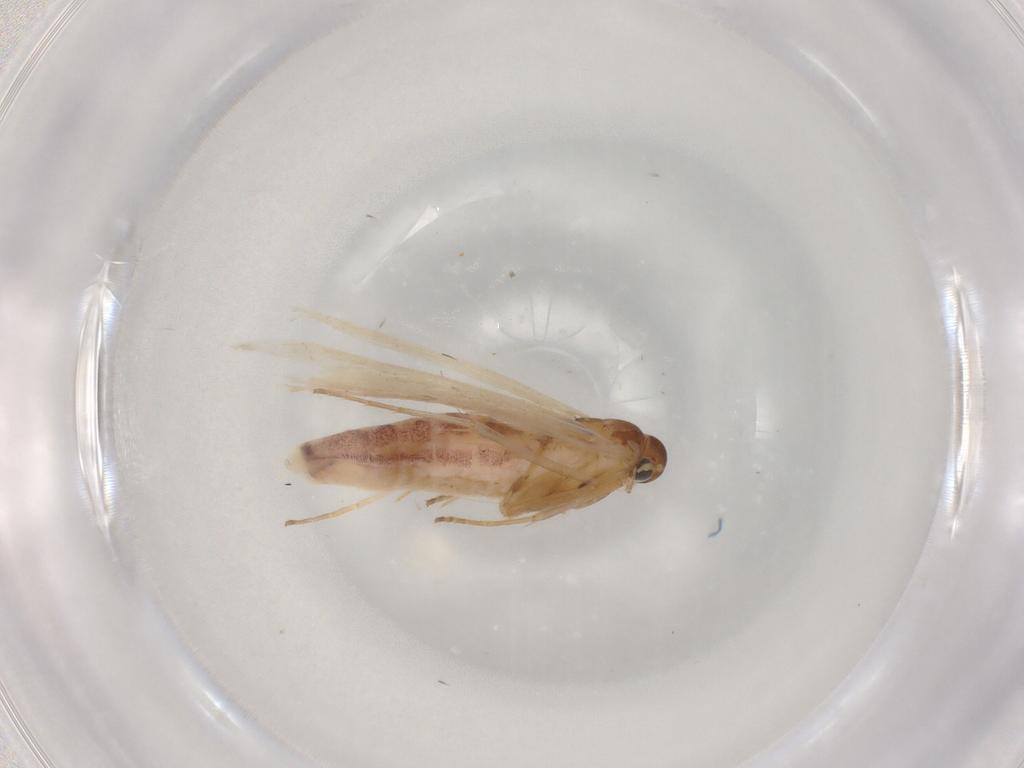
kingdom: Animalia
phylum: Arthropoda
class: Insecta
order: Lepidoptera
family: Gelechiidae
